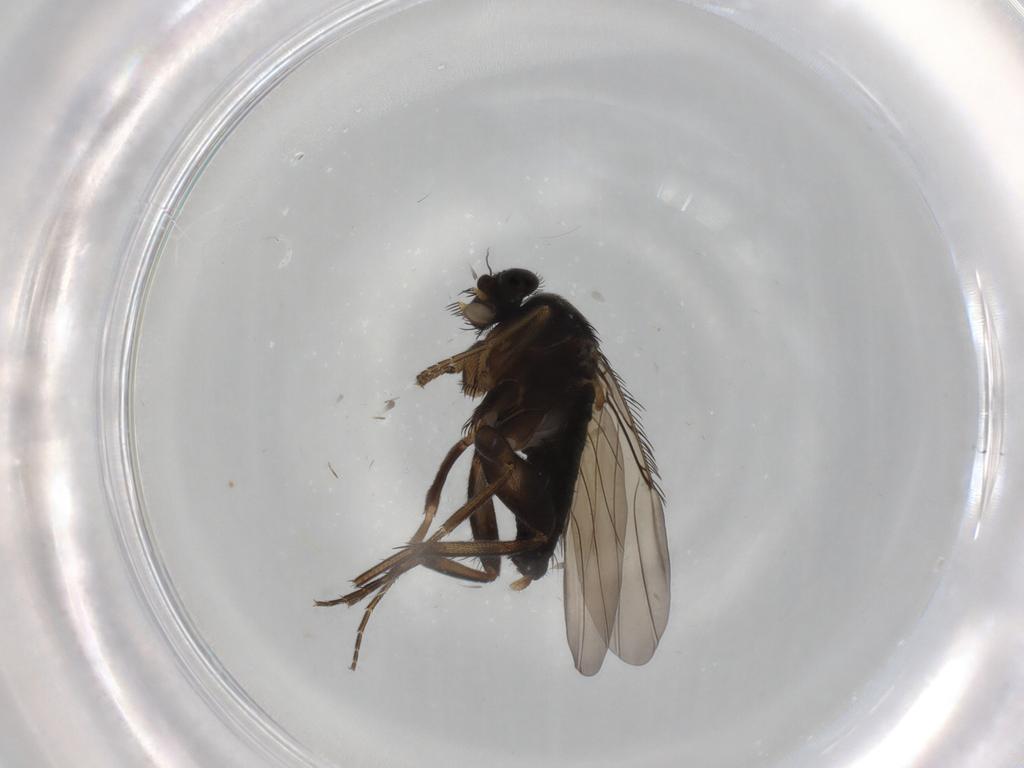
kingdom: Animalia
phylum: Arthropoda
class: Insecta
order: Diptera
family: Phoridae
